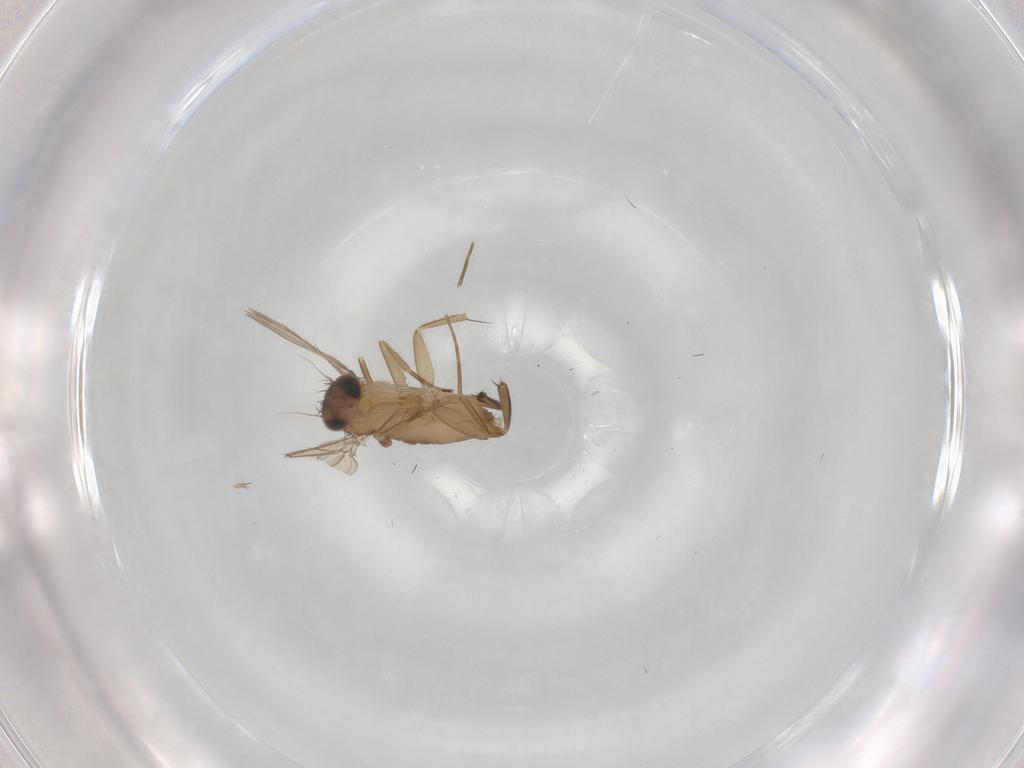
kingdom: Animalia
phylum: Arthropoda
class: Insecta
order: Diptera
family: Phoridae
